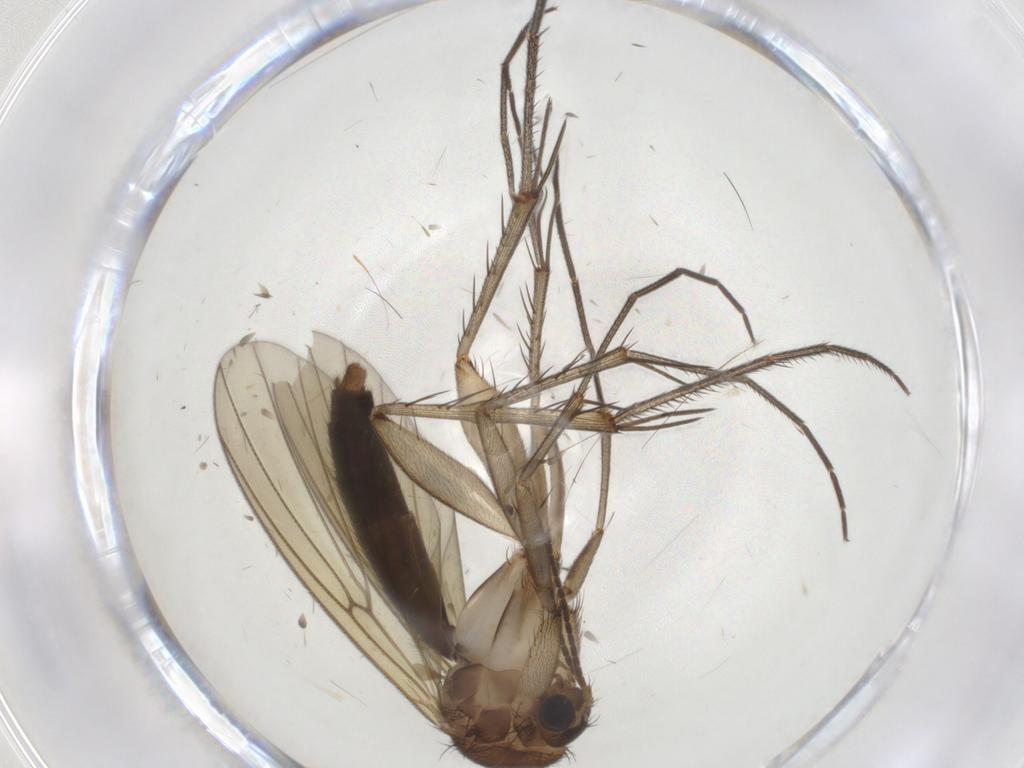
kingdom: Animalia
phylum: Arthropoda
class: Insecta
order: Diptera
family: Mycetophilidae
